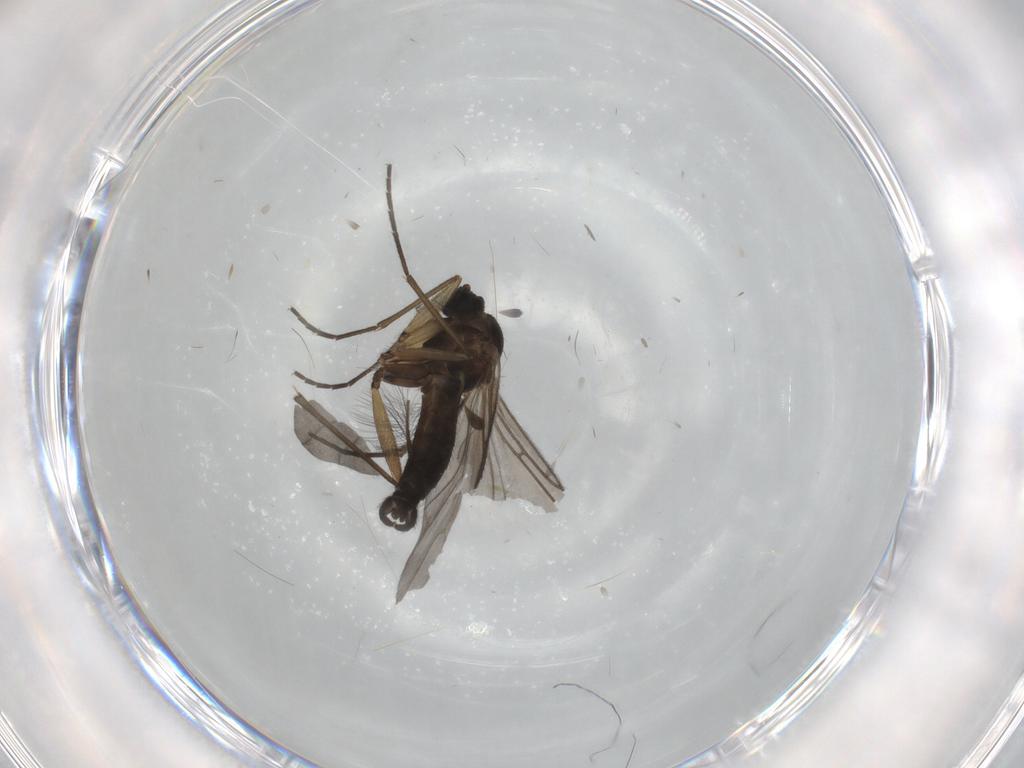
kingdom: Animalia
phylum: Arthropoda
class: Insecta
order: Diptera
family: Sciaridae
